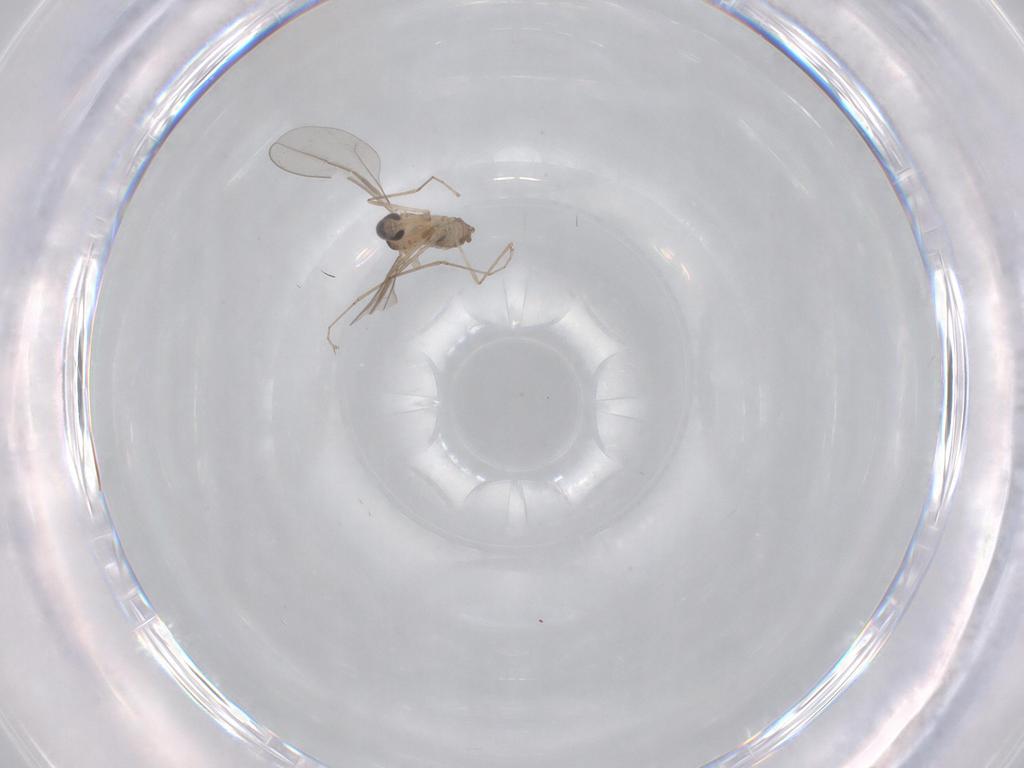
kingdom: Animalia
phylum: Arthropoda
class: Insecta
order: Diptera
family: Cecidomyiidae
